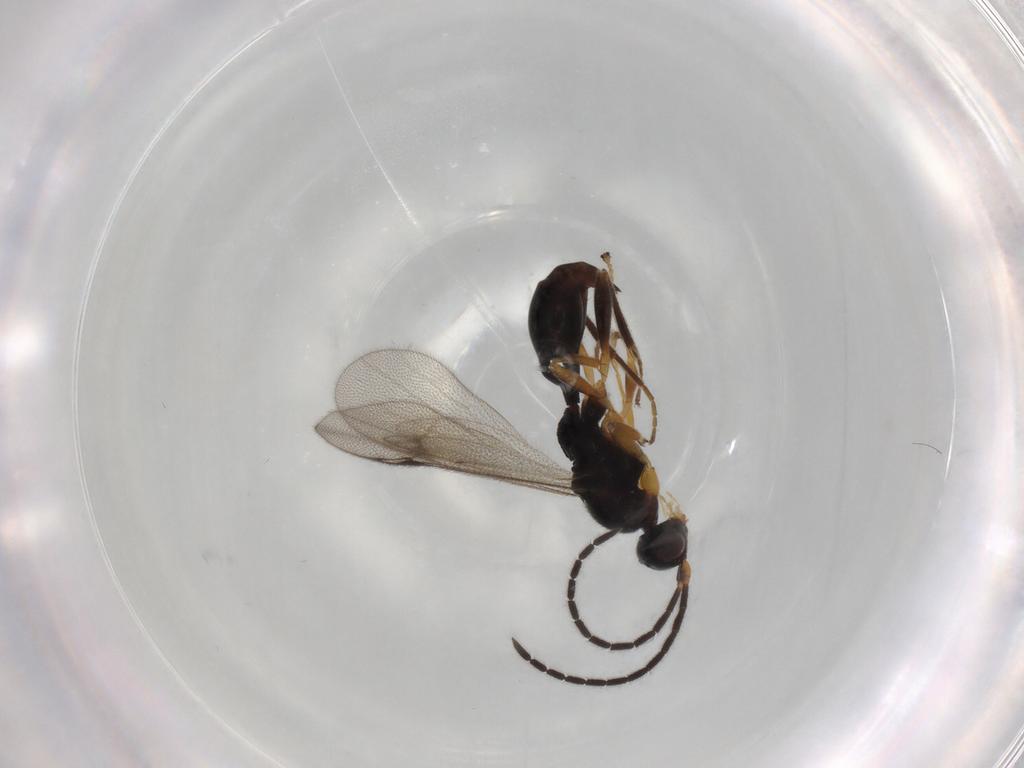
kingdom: Animalia
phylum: Arthropoda
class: Insecta
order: Hymenoptera
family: Proctotrupidae
